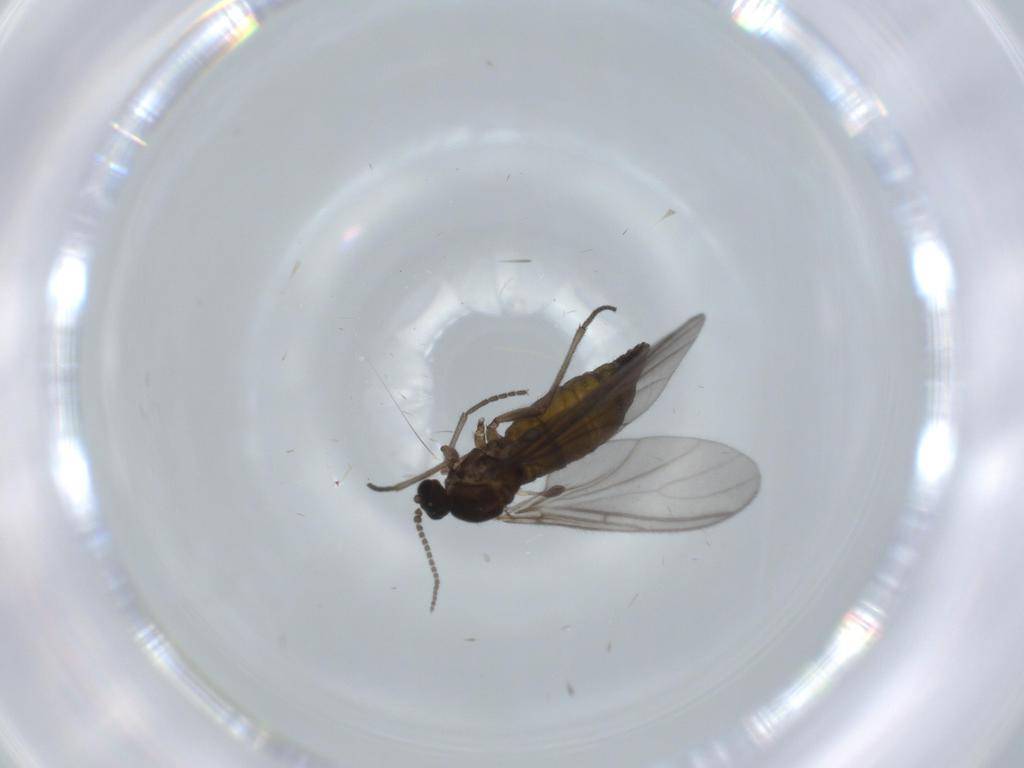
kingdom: Animalia
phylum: Arthropoda
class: Insecta
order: Diptera
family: Sciaridae
